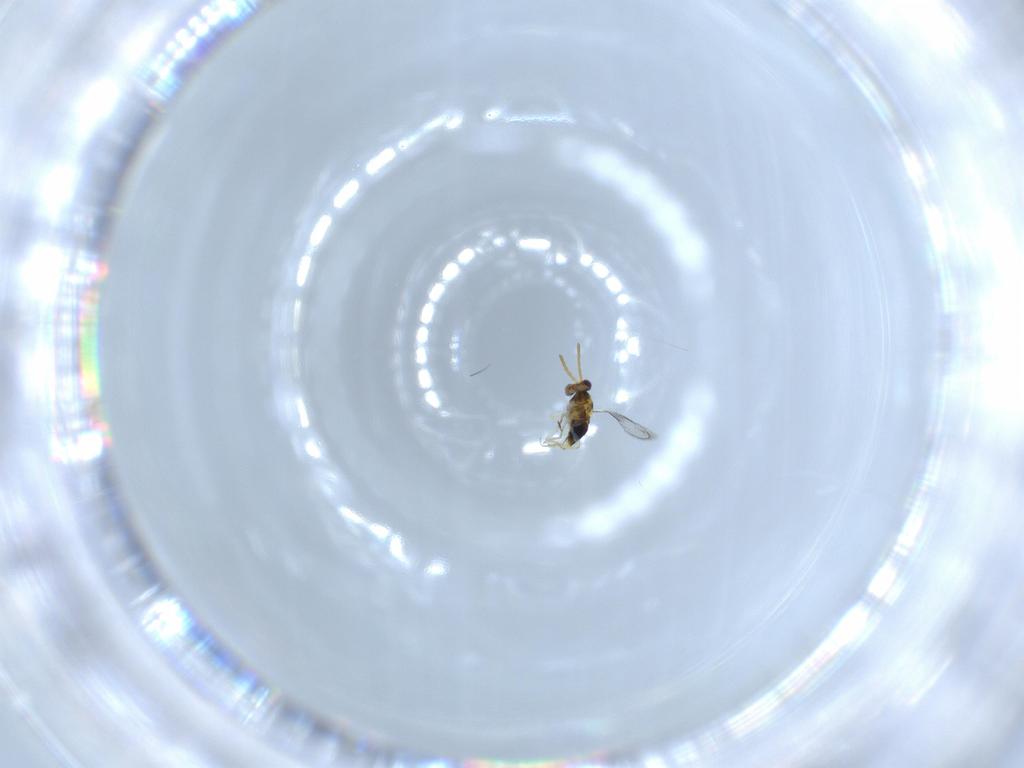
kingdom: Animalia
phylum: Arthropoda
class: Insecta
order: Hymenoptera
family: Aphelinidae
